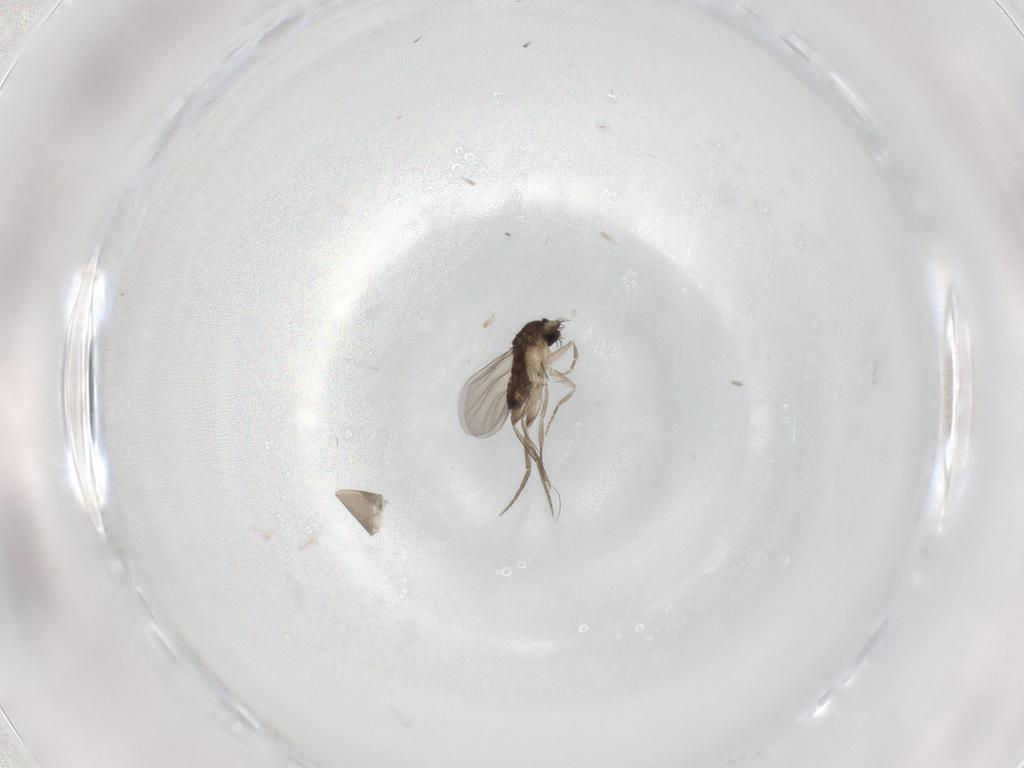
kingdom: Animalia
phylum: Arthropoda
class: Insecta
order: Diptera
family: Phoridae
